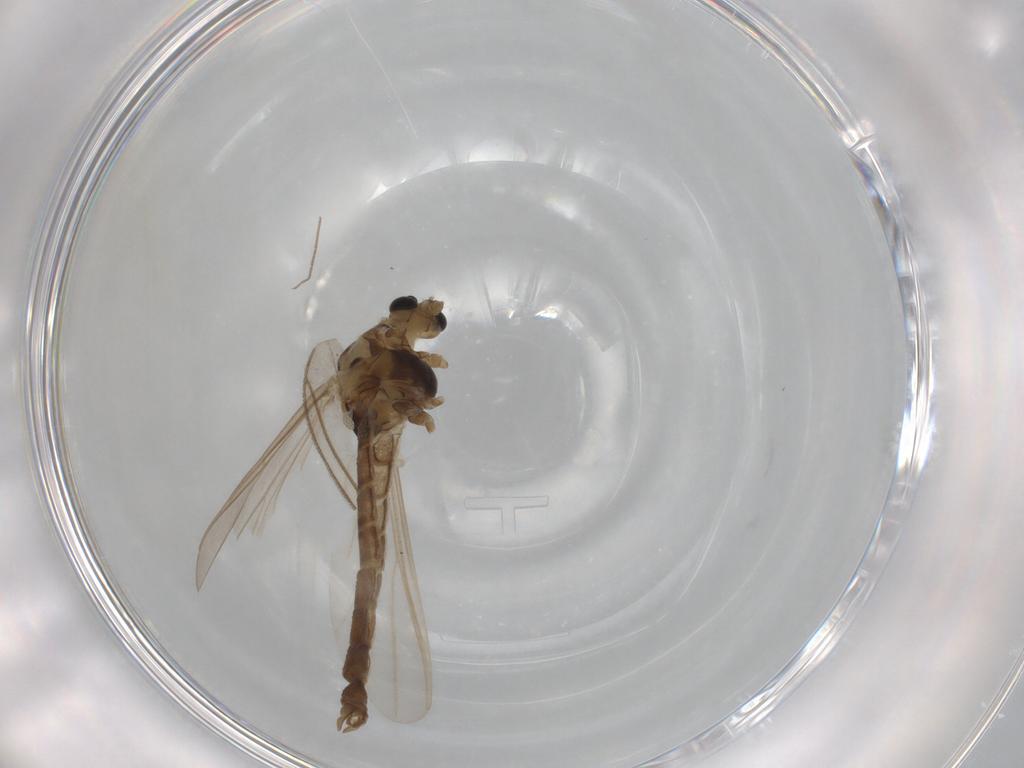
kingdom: Animalia
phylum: Arthropoda
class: Insecta
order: Diptera
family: Chironomidae
